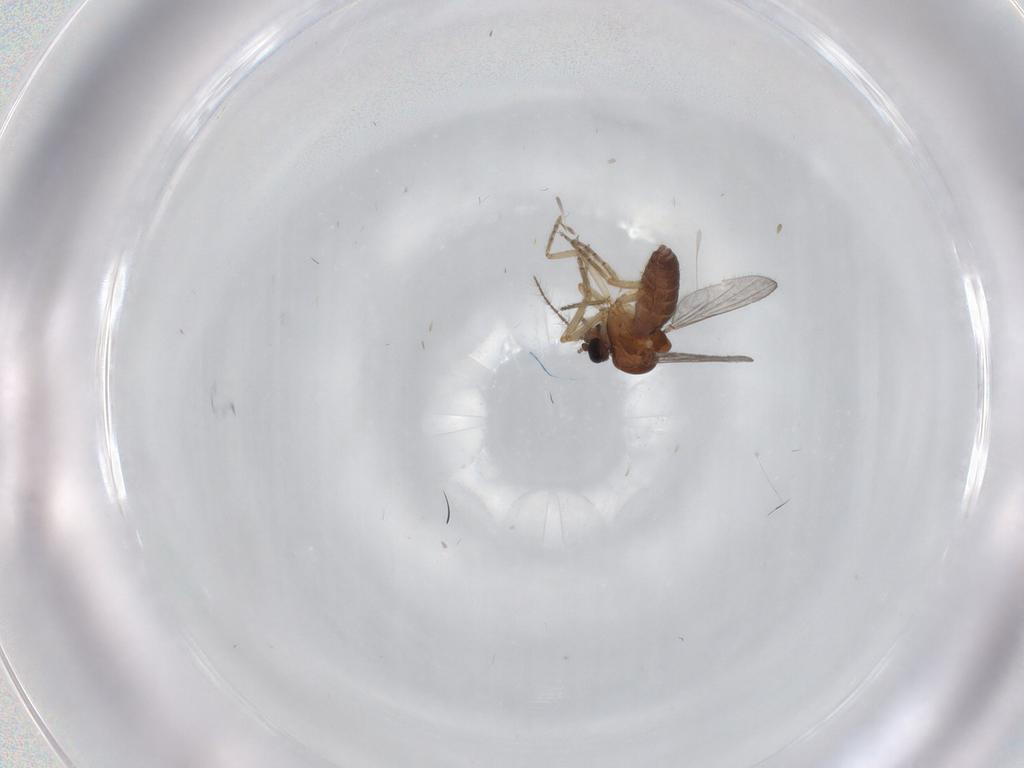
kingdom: Animalia
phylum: Arthropoda
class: Insecta
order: Diptera
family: Ceratopogonidae
